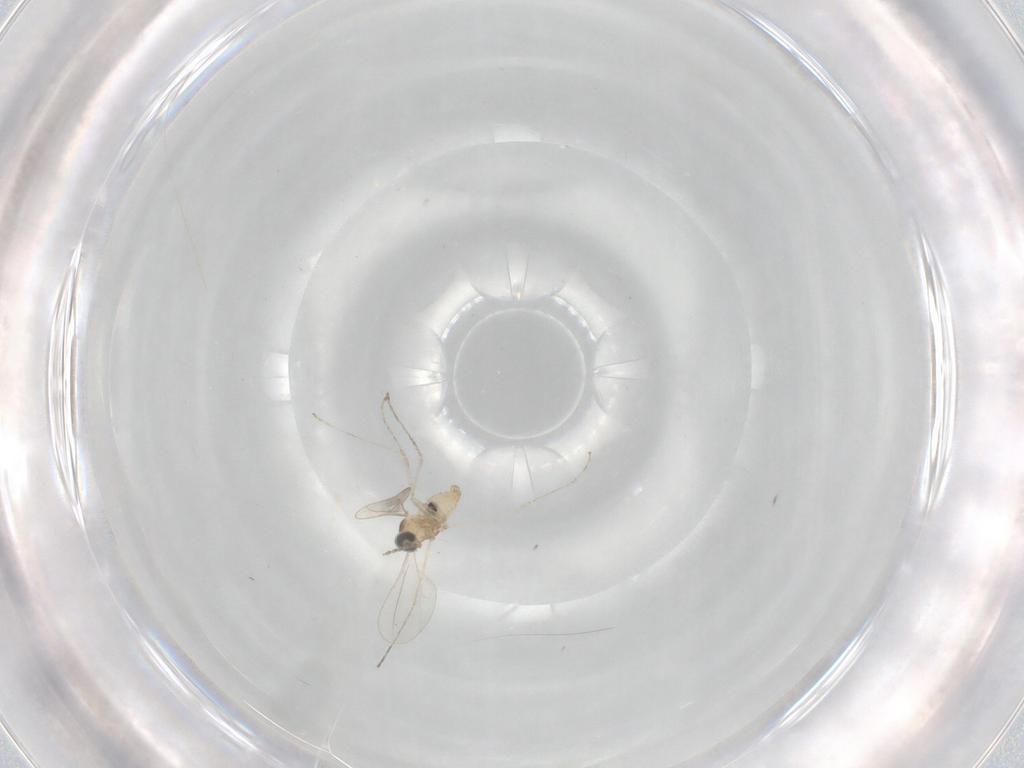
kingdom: Animalia
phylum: Arthropoda
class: Insecta
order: Diptera
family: Cecidomyiidae
